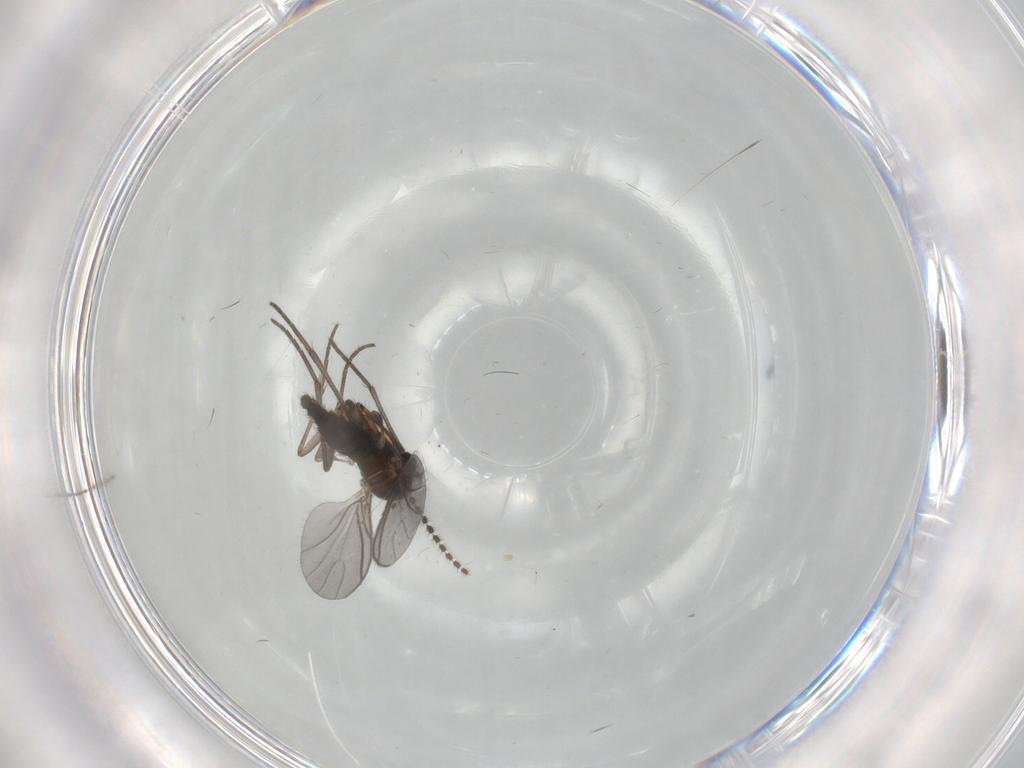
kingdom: Animalia
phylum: Arthropoda
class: Insecta
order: Diptera
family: Sciaridae
